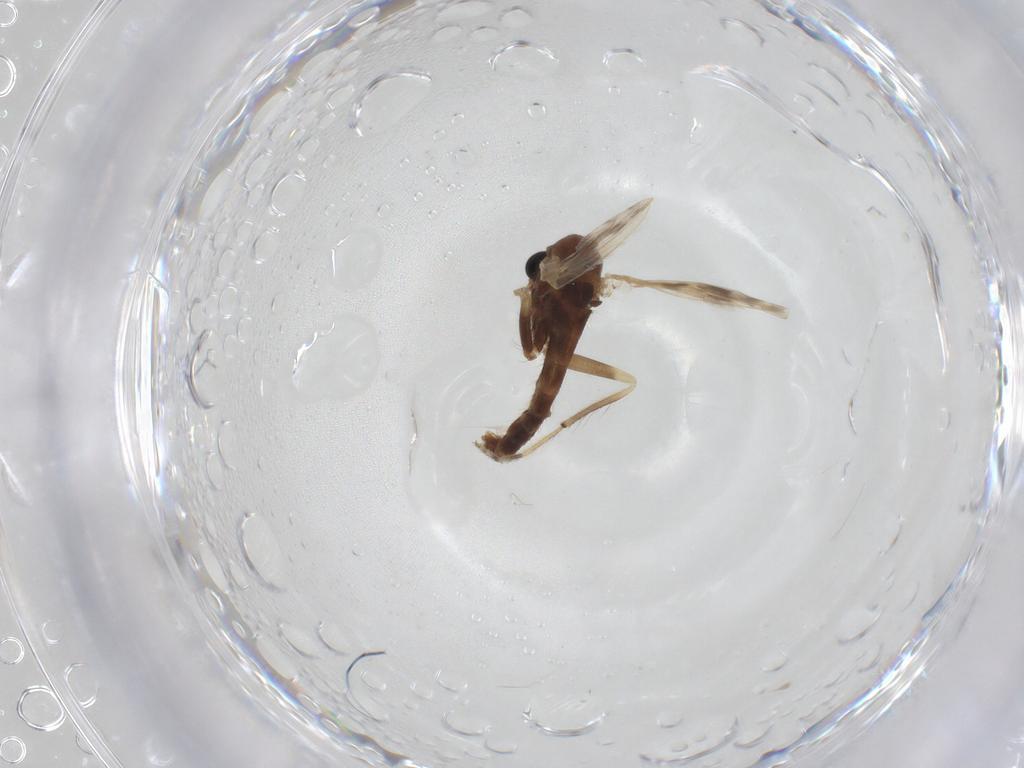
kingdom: Animalia
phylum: Arthropoda
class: Insecta
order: Diptera
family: Chironomidae
